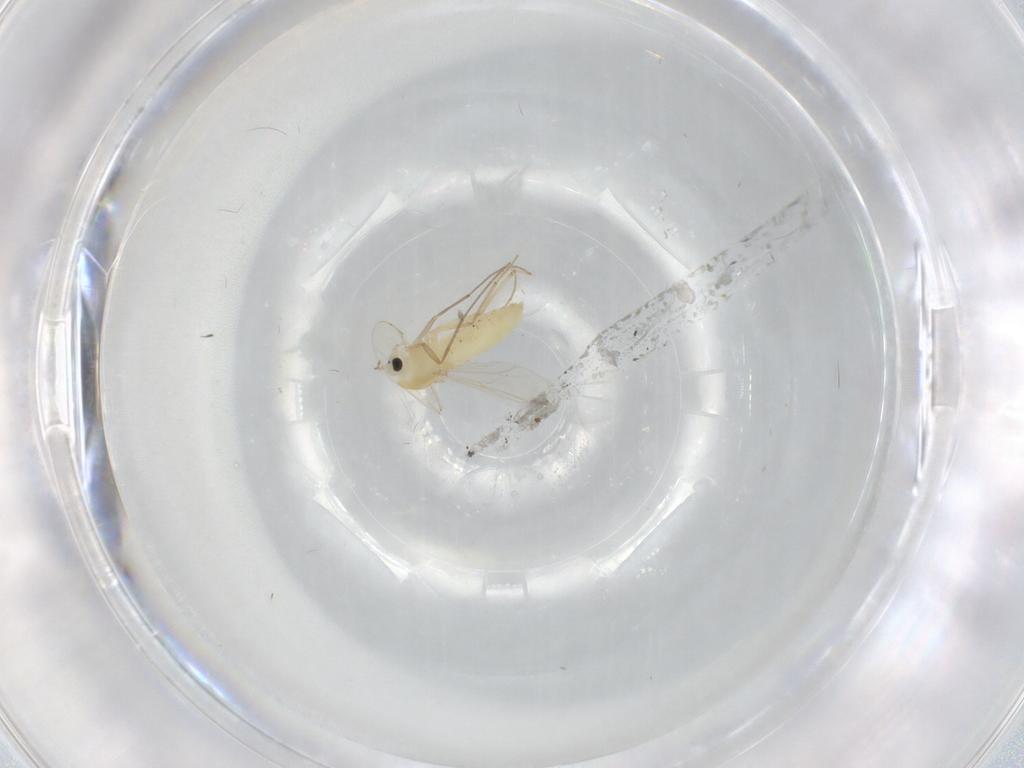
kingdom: Animalia
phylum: Arthropoda
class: Insecta
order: Diptera
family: Chironomidae
